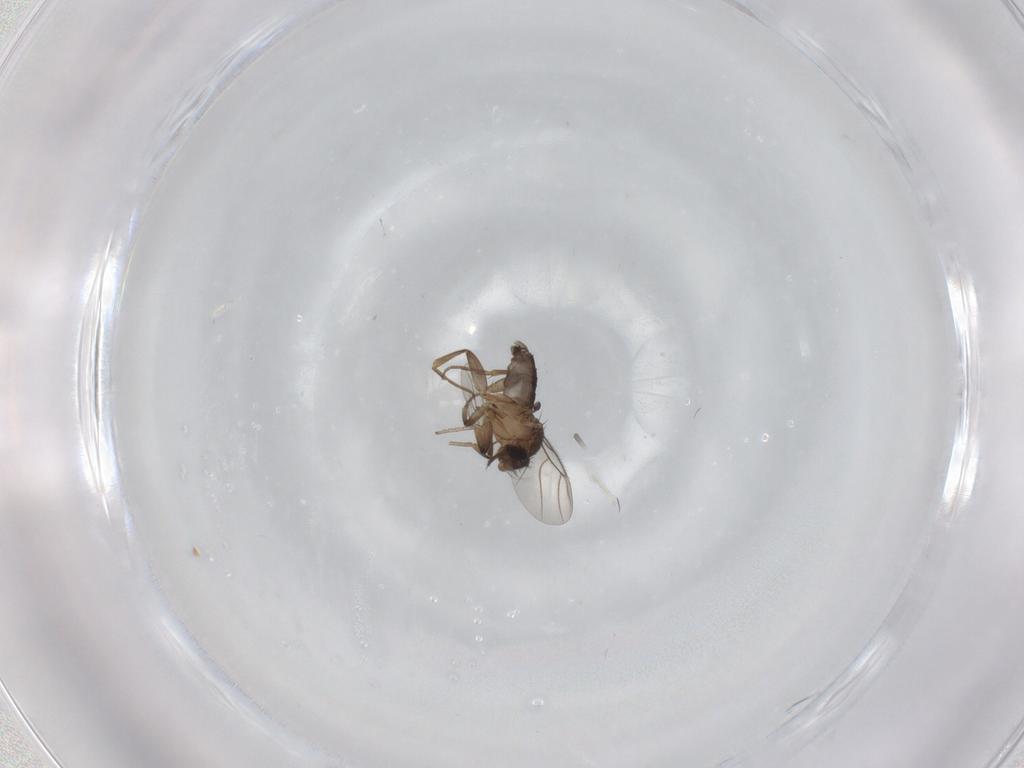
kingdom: Animalia
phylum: Arthropoda
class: Insecta
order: Diptera
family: Phoridae
